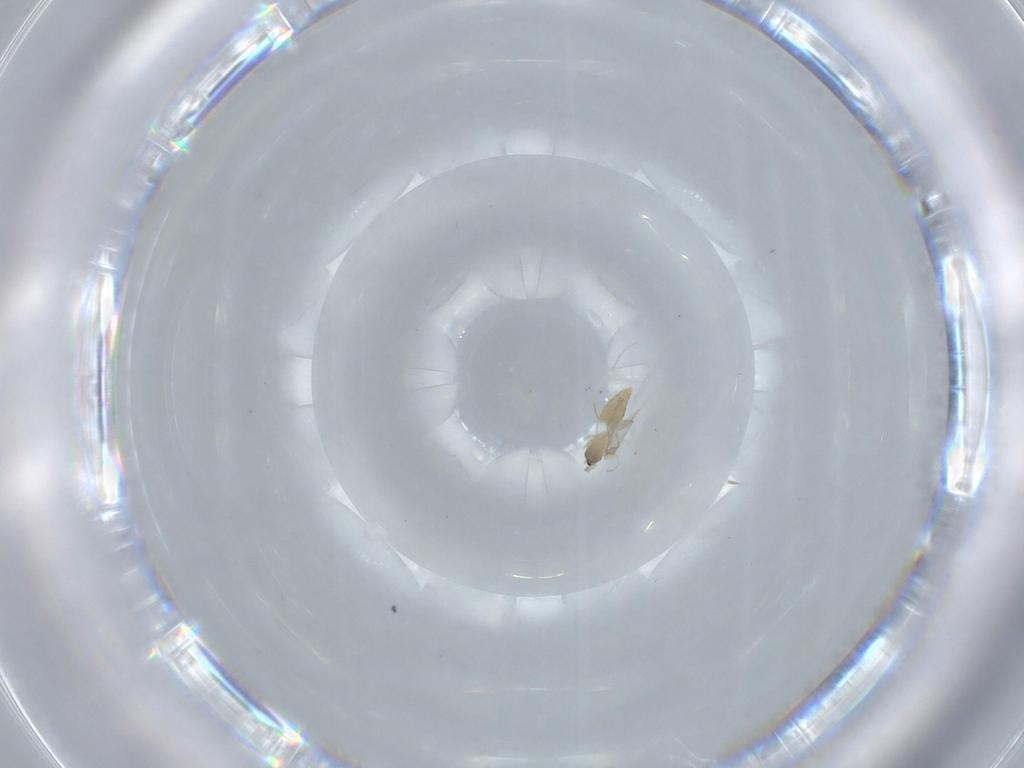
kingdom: Animalia
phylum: Arthropoda
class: Insecta
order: Diptera
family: Cecidomyiidae
